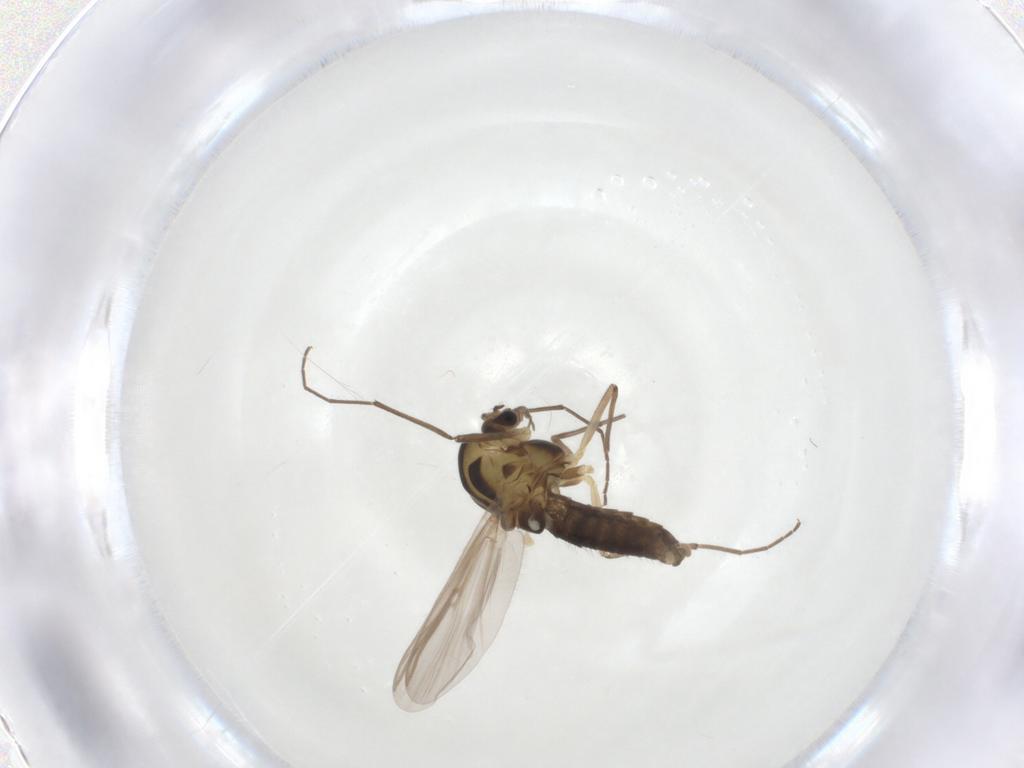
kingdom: Animalia
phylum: Arthropoda
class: Insecta
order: Diptera
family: Chironomidae
